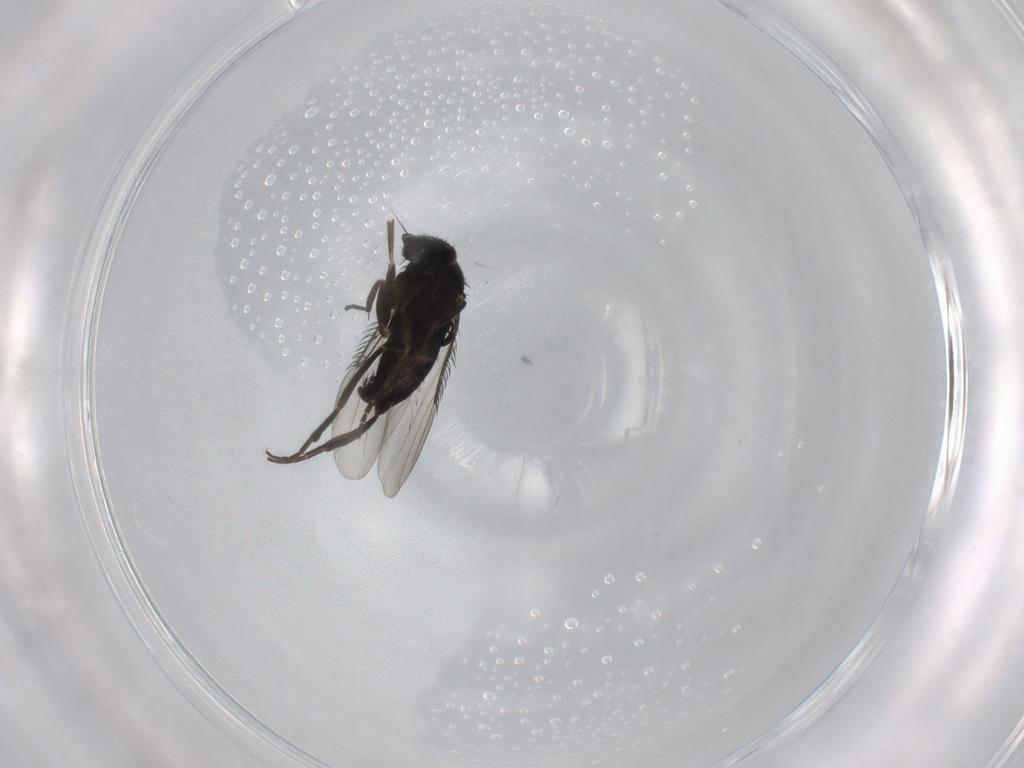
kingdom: Animalia
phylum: Arthropoda
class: Insecta
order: Diptera
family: Phoridae
